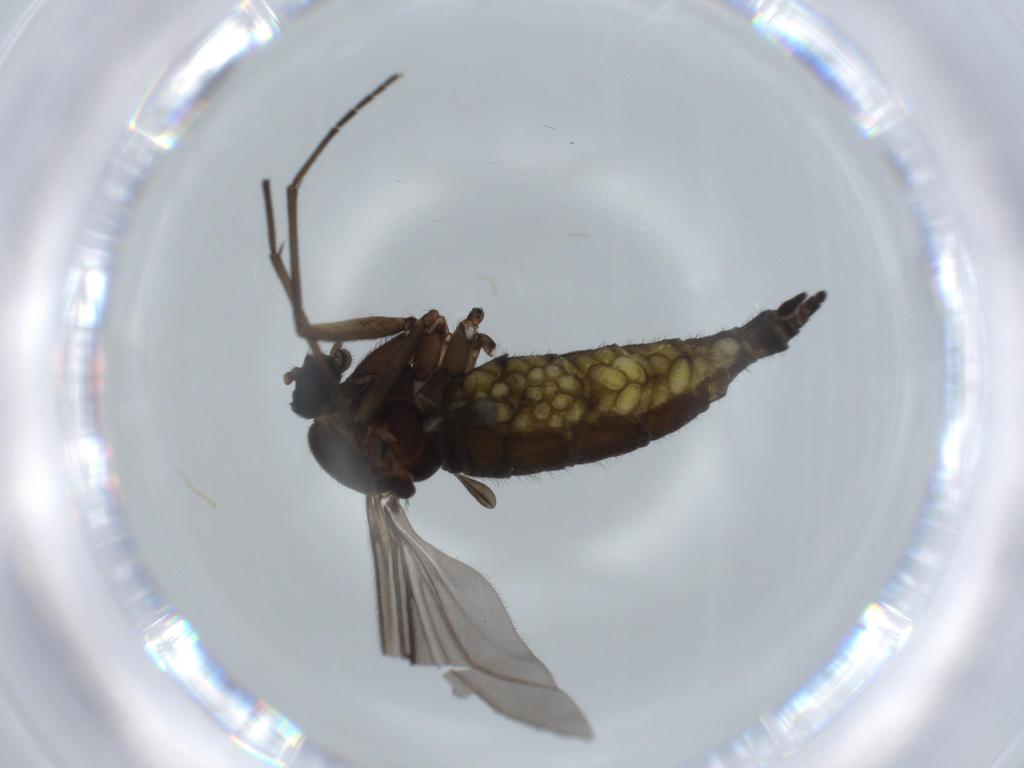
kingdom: Animalia
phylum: Arthropoda
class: Insecta
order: Diptera
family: Sciaridae
